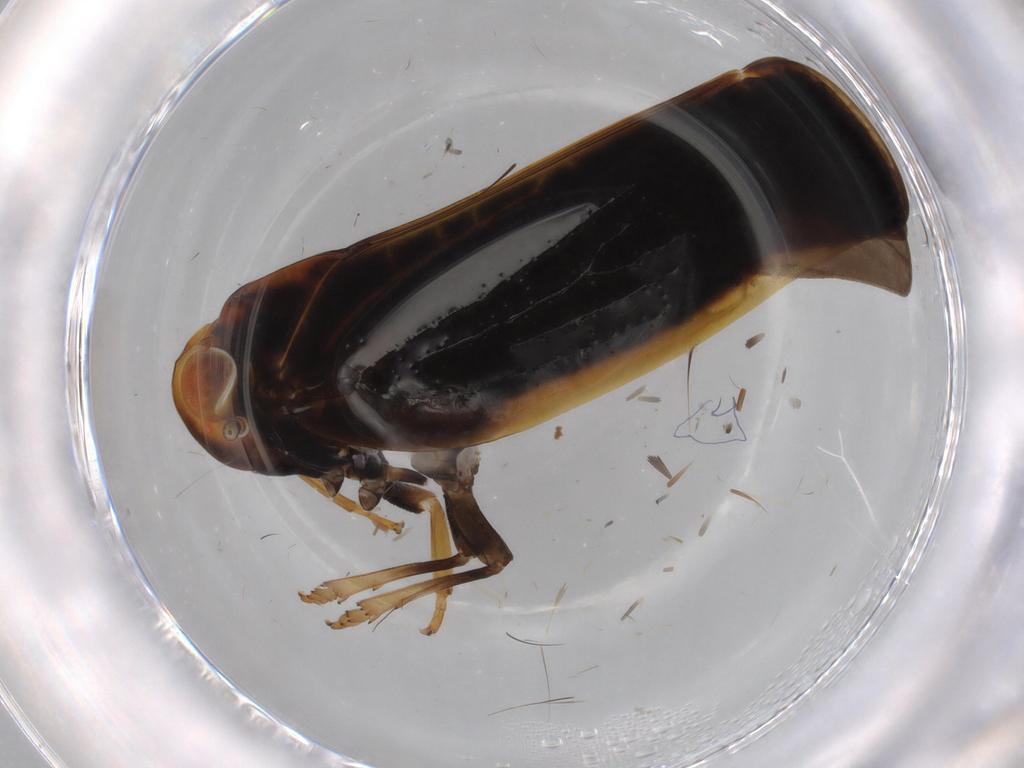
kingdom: Animalia
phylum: Arthropoda
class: Insecta
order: Hemiptera
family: Nogodinidae
